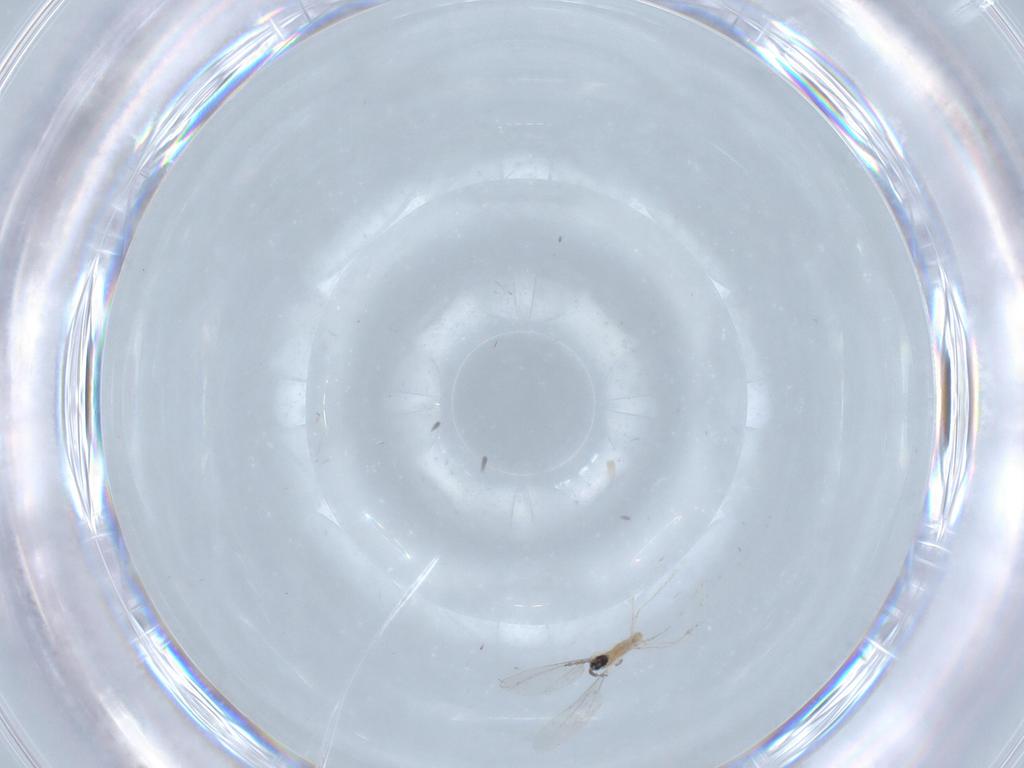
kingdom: Animalia
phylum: Arthropoda
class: Insecta
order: Diptera
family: Cecidomyiidae
